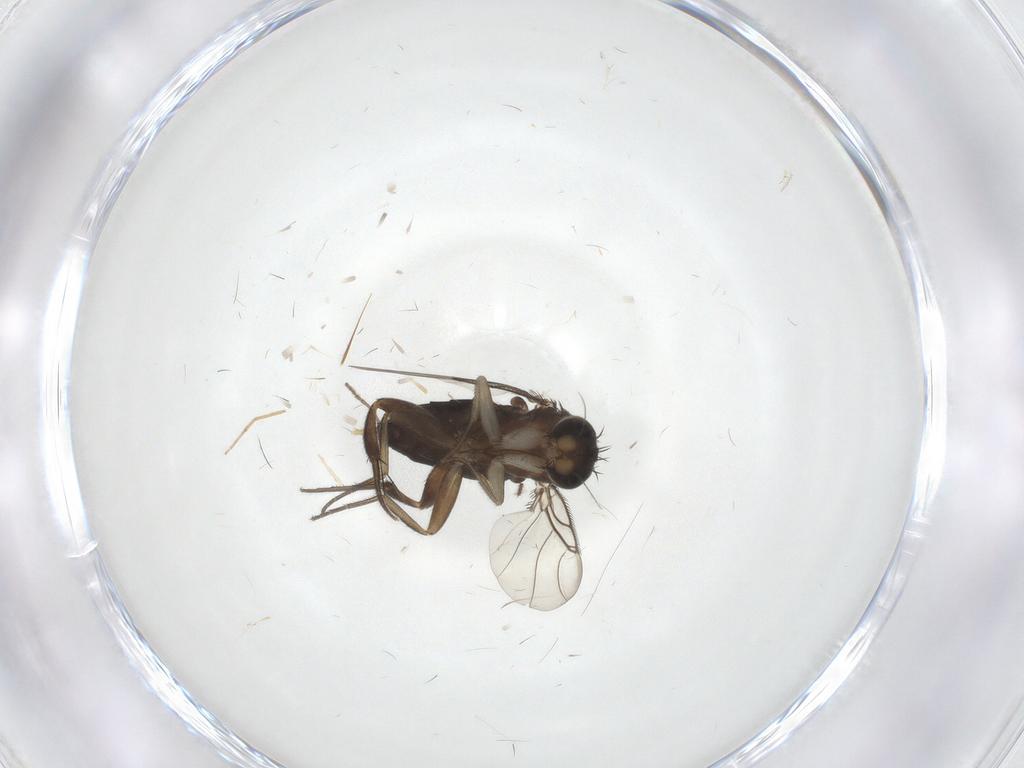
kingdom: Animalia
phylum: Arthropoda
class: Insecta
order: Diptera
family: Phoridae
